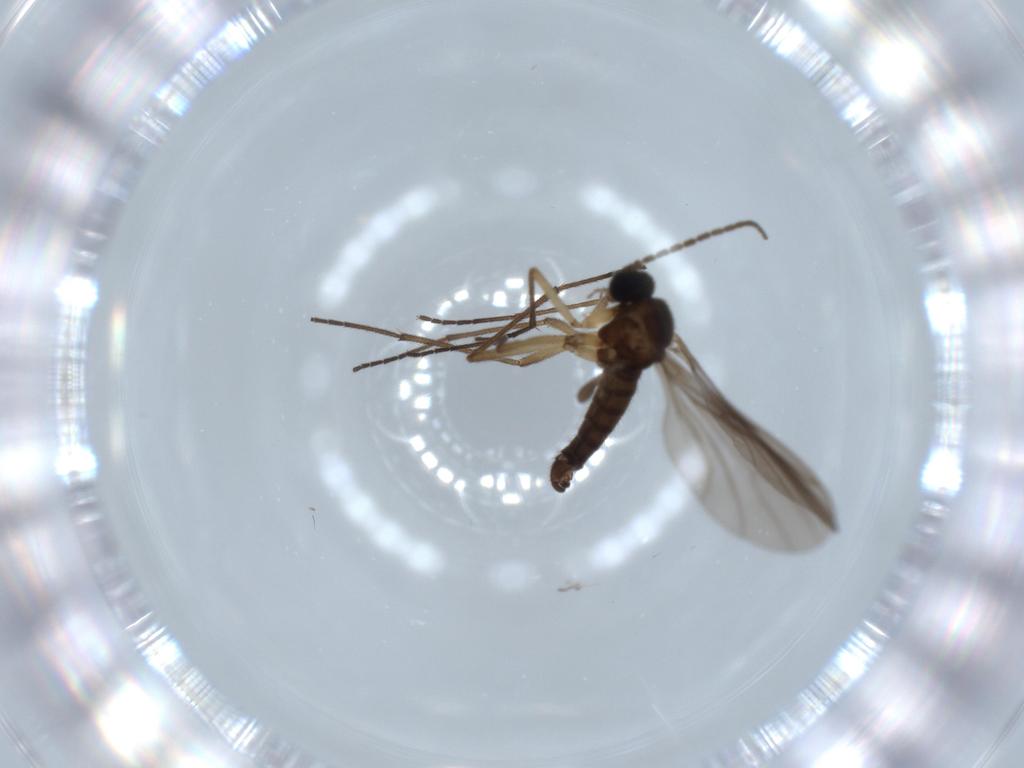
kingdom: Animalia
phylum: Arthropoda
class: Insecta
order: Diptera
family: Sciaridae
